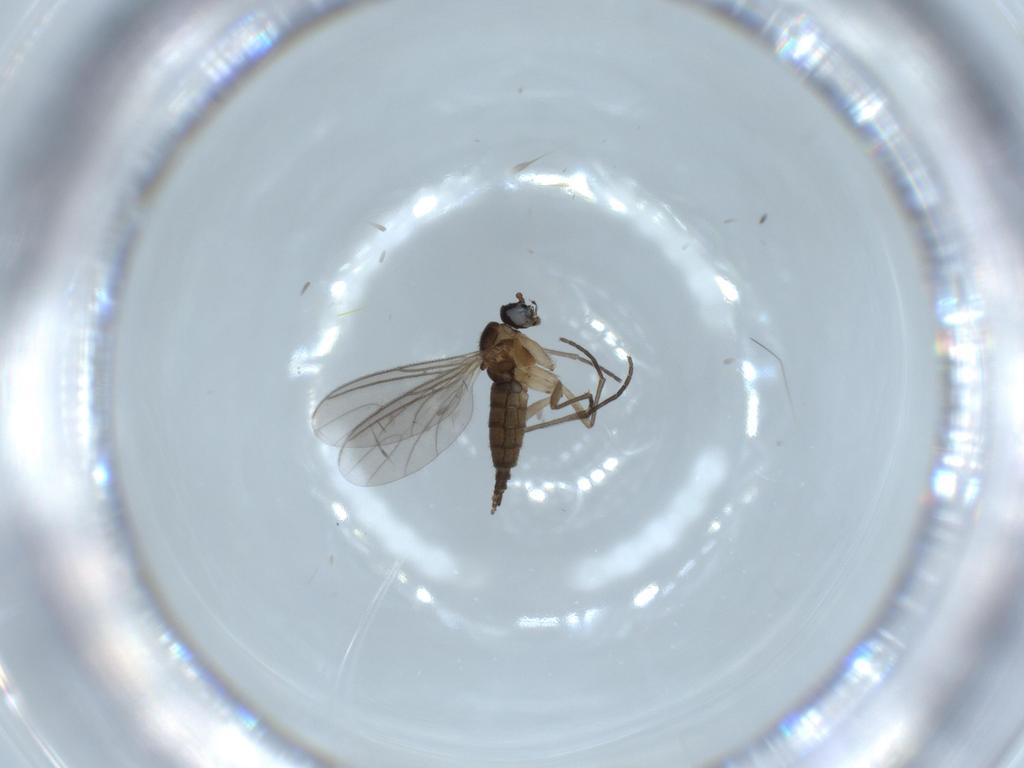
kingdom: Animalia
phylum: Arthropoda
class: Insecta
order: Diptera
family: Sciaridae
